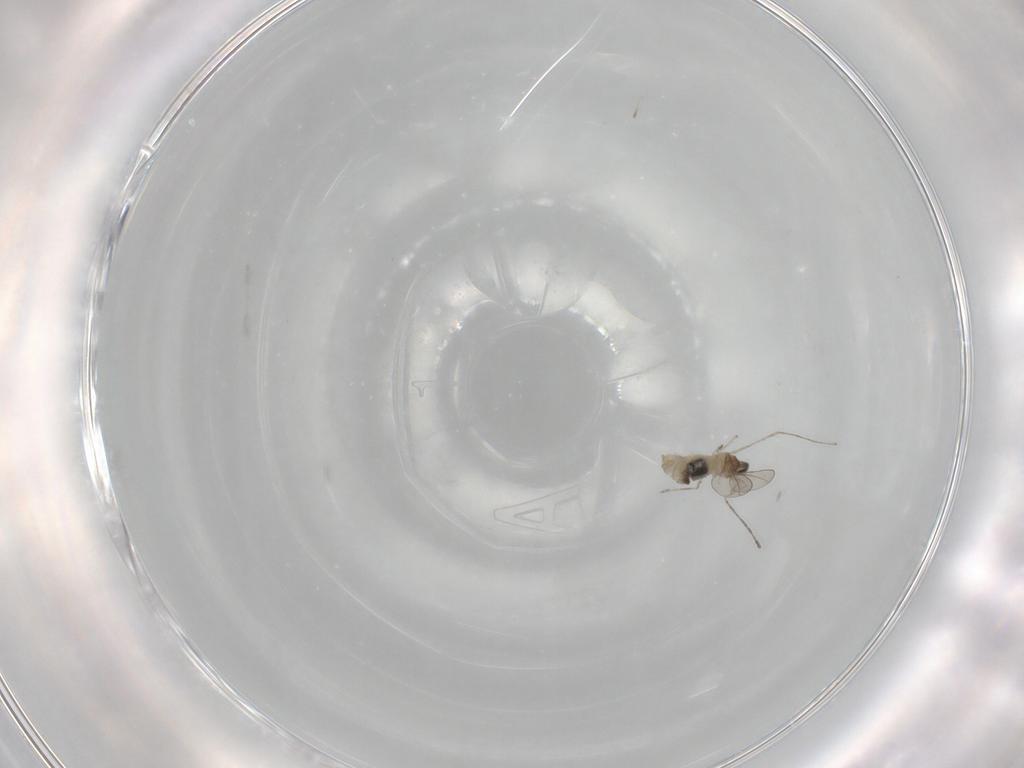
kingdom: Animalia
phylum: Arthropoda
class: Insecta
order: Diptera
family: Cecidomyiidae
